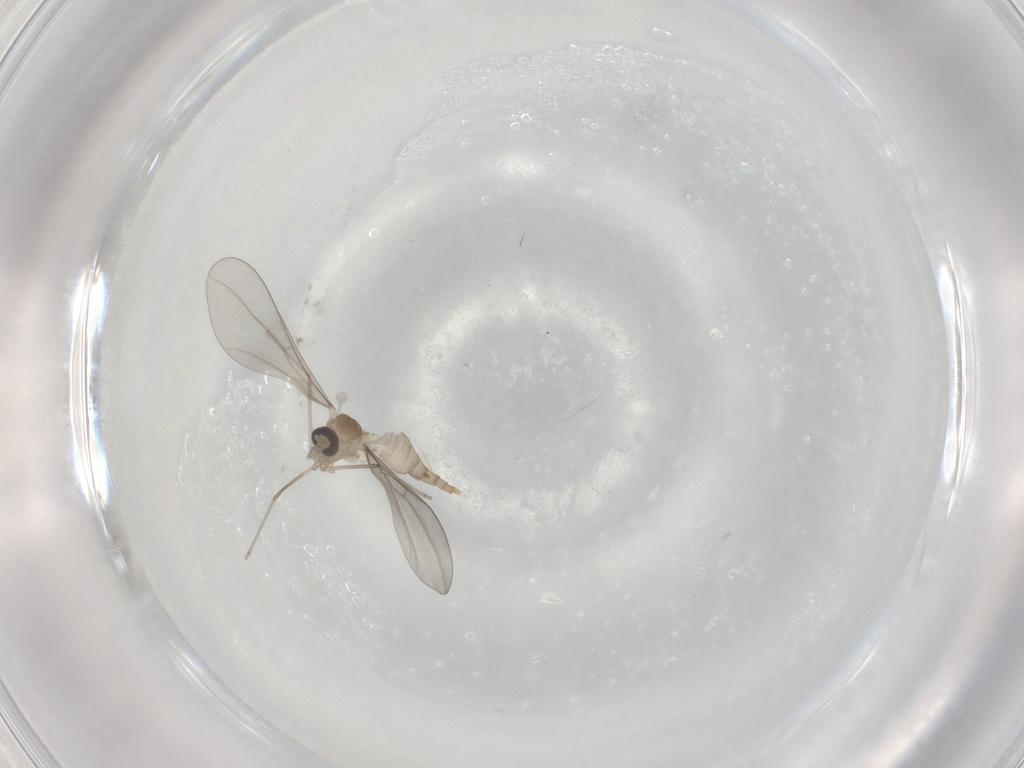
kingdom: Animalia
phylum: Arthropoda
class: Insecta
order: Diptera
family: Cecidomyiidae
